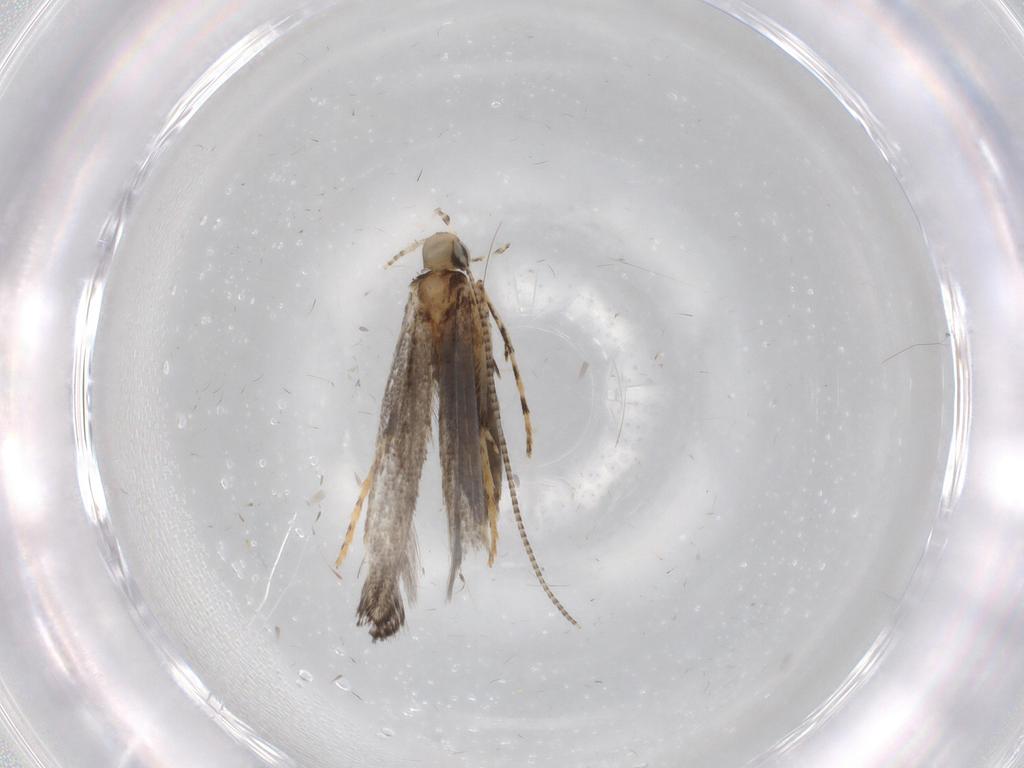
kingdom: Animalia
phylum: Arthropoda
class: Insecta
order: Lepidoptera
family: Gracillariidae
